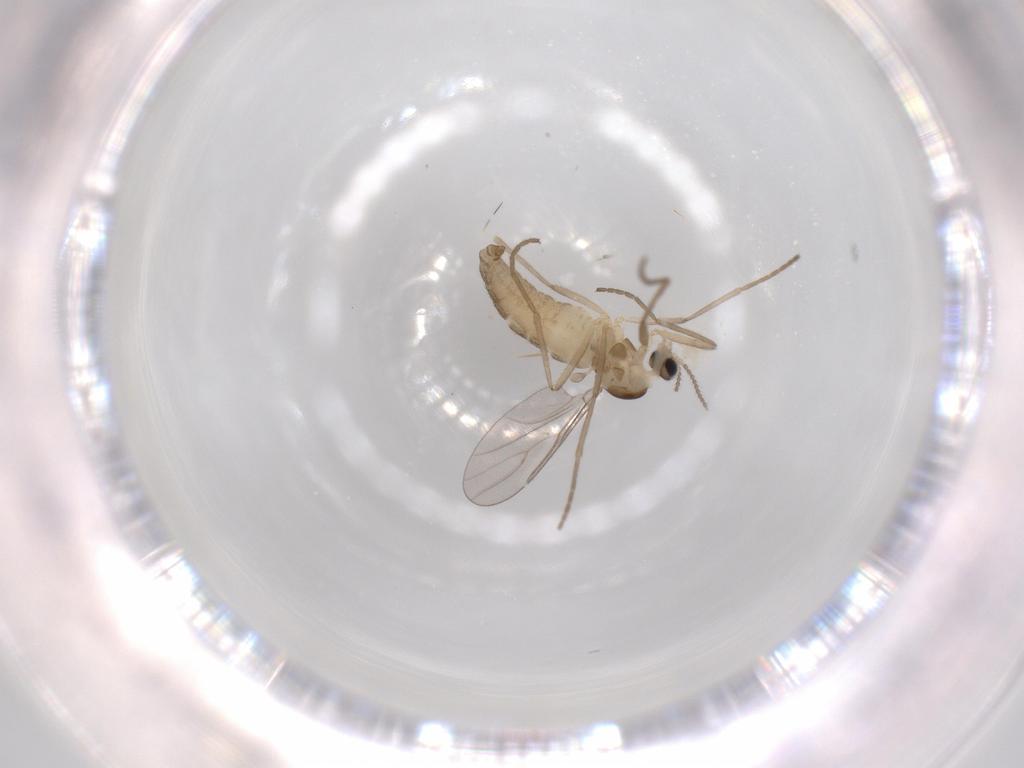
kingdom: Animalia
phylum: Arthropoda
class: Insecta
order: Diptera
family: Cecidomyiidae
